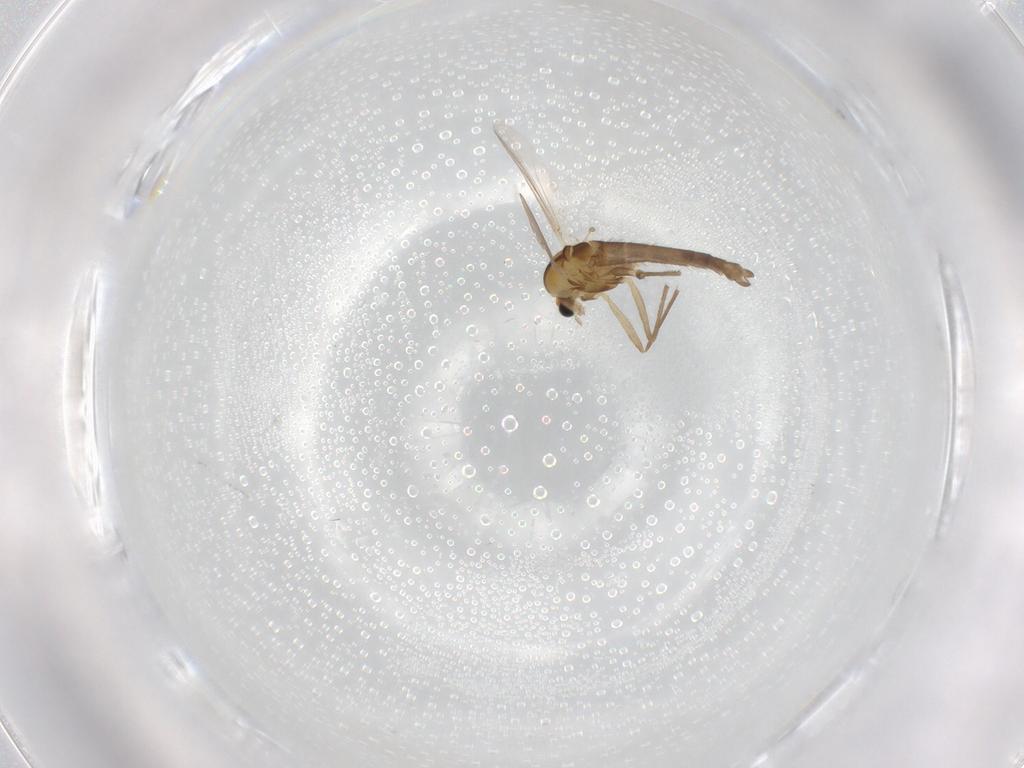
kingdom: Animalia
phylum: Arthropoda
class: Insecta
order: Diptera
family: Chironomidae
